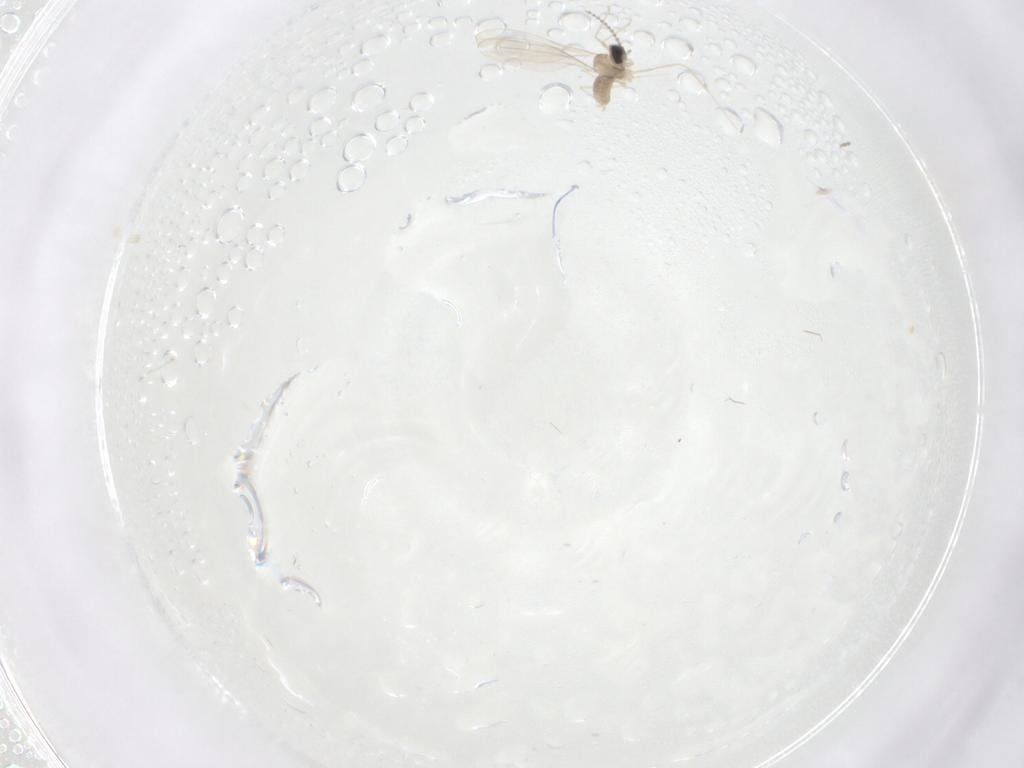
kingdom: Animalia
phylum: Arthropoda
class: Insecta
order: Diptera
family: Cecidomyiidae
